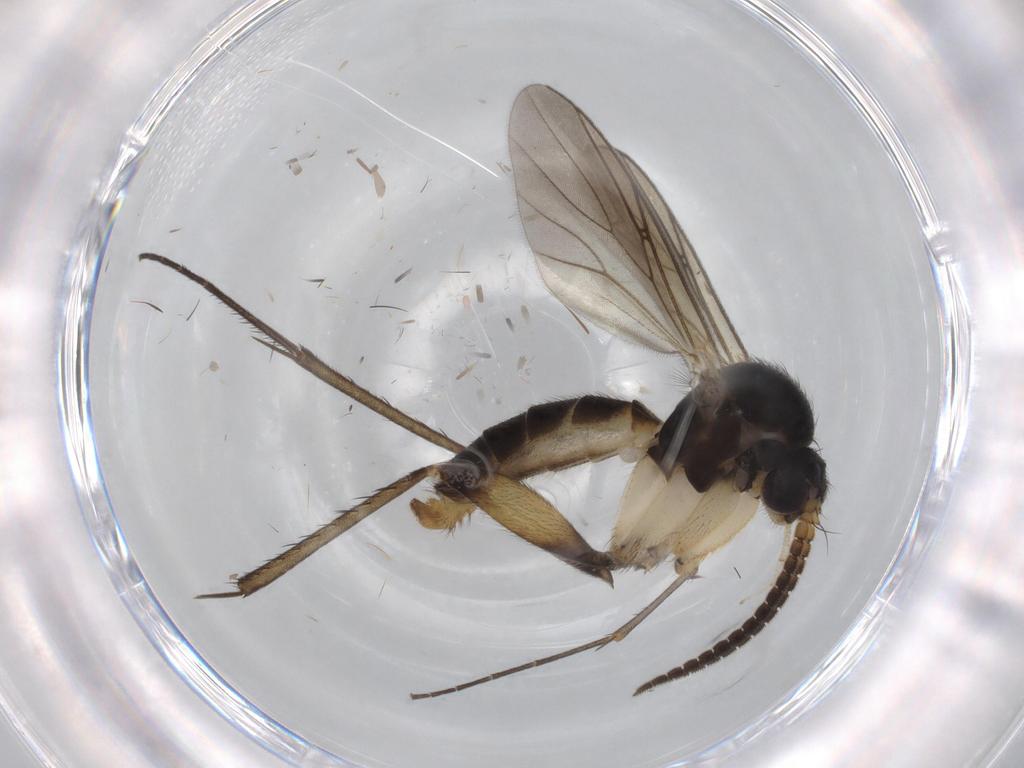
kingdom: Animalia
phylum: Arthropoda
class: Insecta
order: Diptera
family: Phoridae
